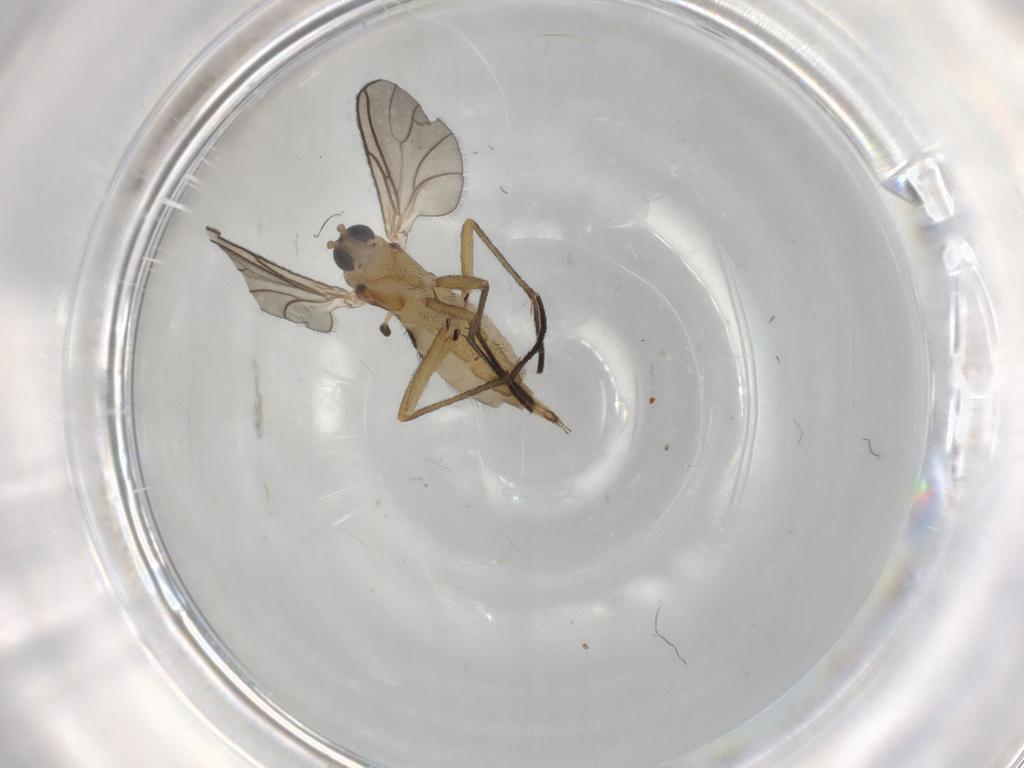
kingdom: Animalia
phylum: Arthropoda
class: Insecta
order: Diptera
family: Sciaridae
